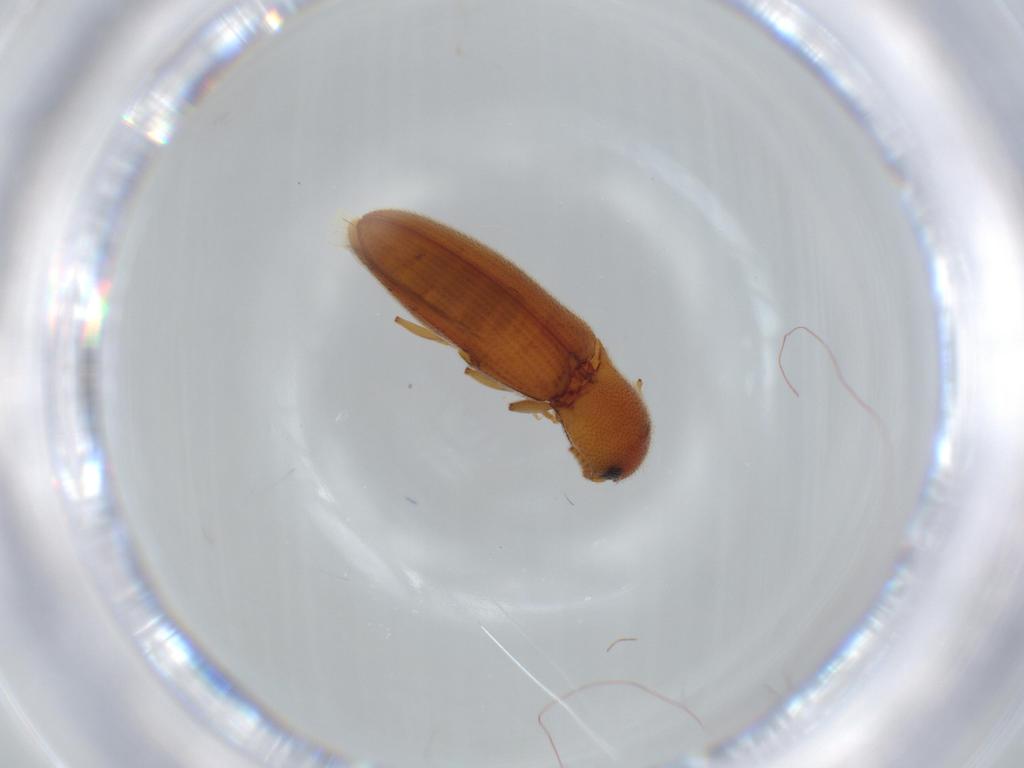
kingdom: Animalia
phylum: Arthropoda
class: Insecta
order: Coleoptera
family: Elateridae
